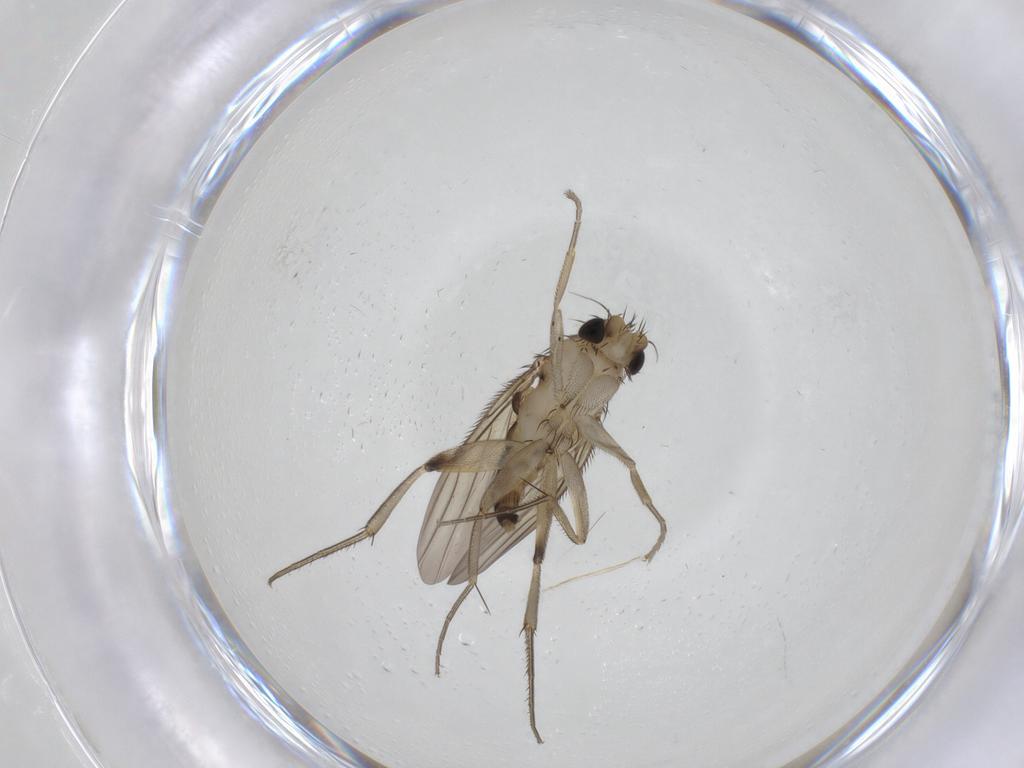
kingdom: Animalia
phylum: Arthropoda
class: Insecta
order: Diptera
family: Phoridae
